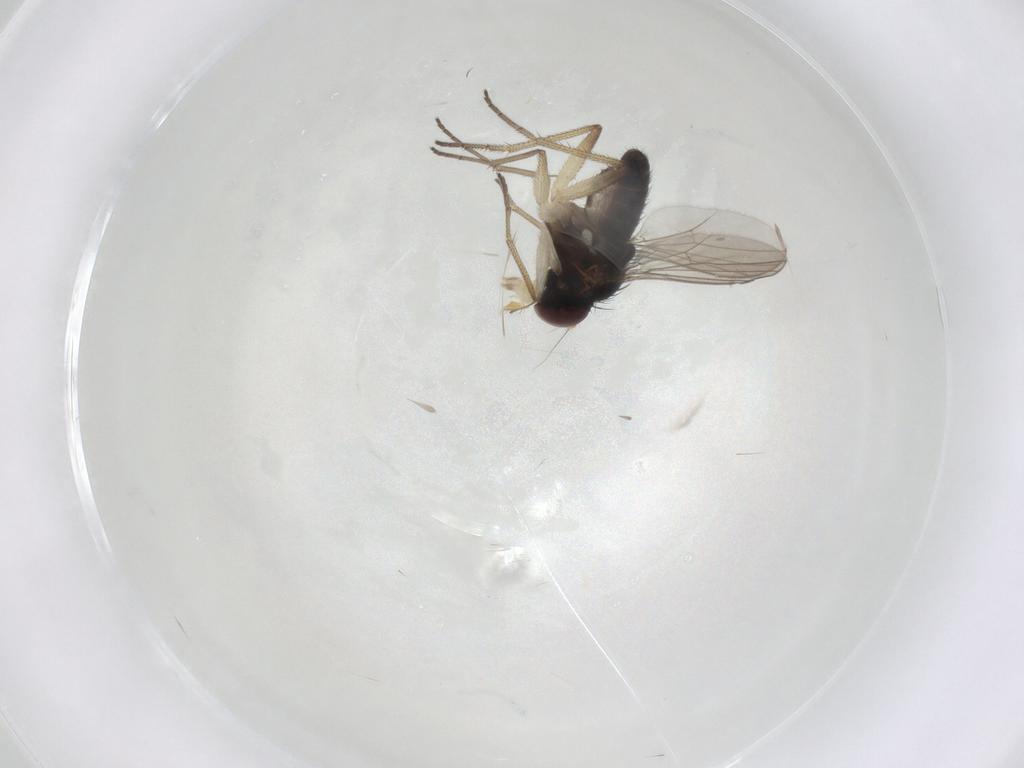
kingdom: Animalia
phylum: Arthropoda
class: Insecta
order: Diptera
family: Dolichopodidae
